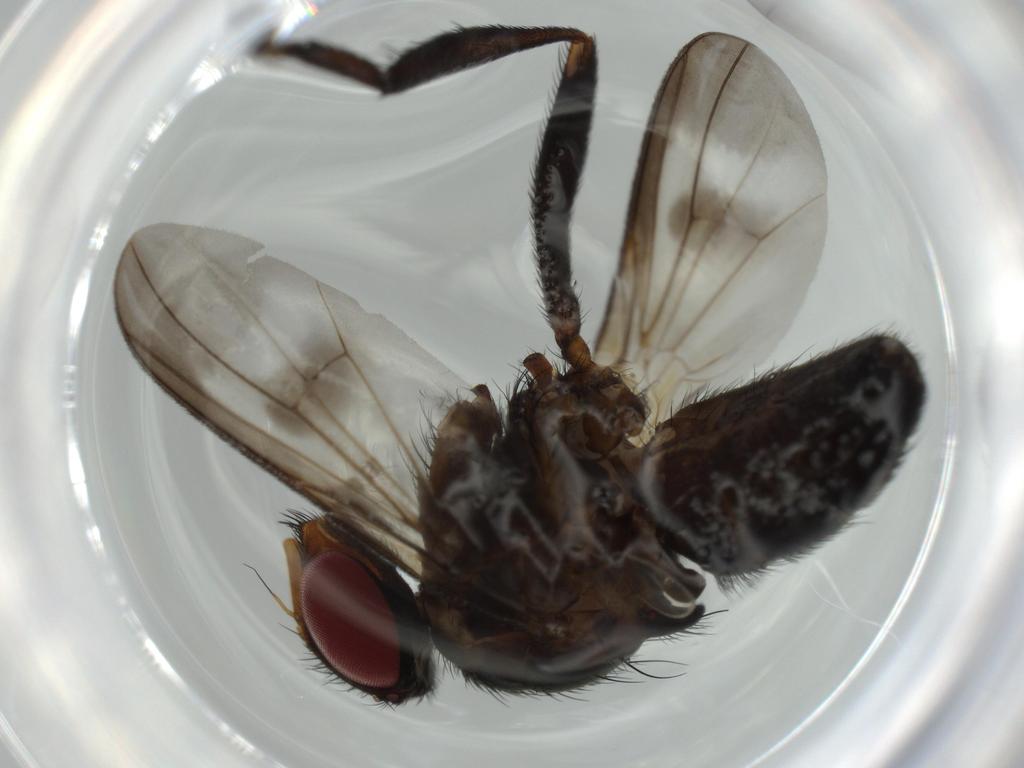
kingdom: Animalia
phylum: Arthropoda
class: Insecta
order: Diptera
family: Calliphoridae
